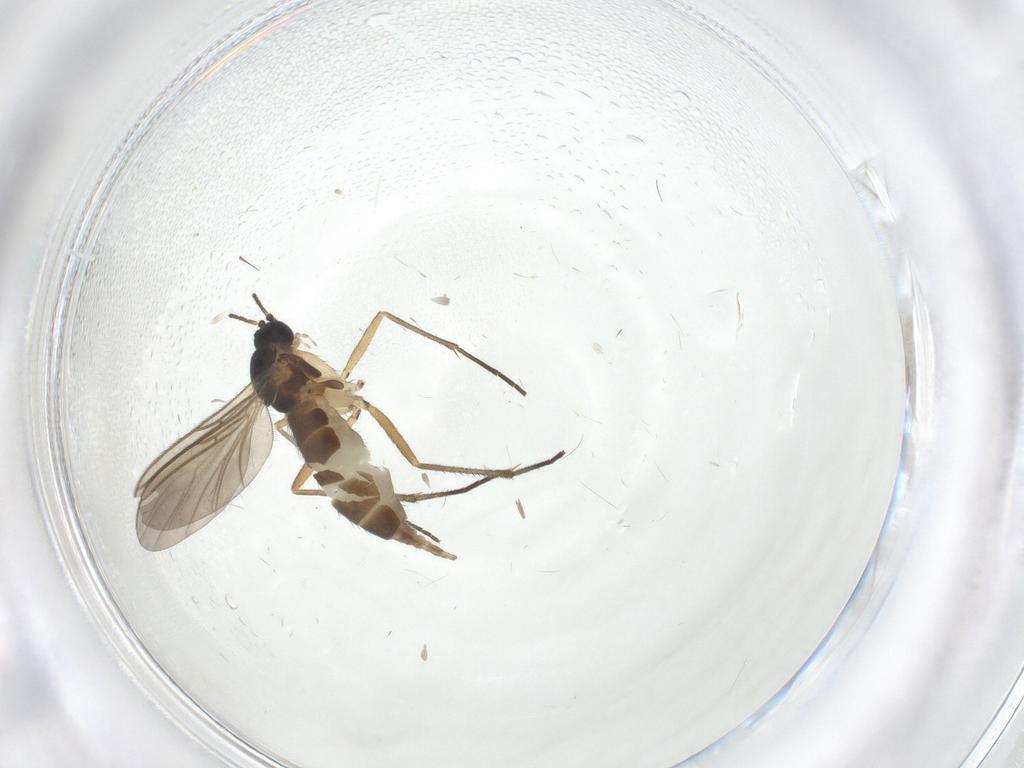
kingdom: Animalia
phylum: Arthropoda
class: Insecta
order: Diptera
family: Sciaridae
